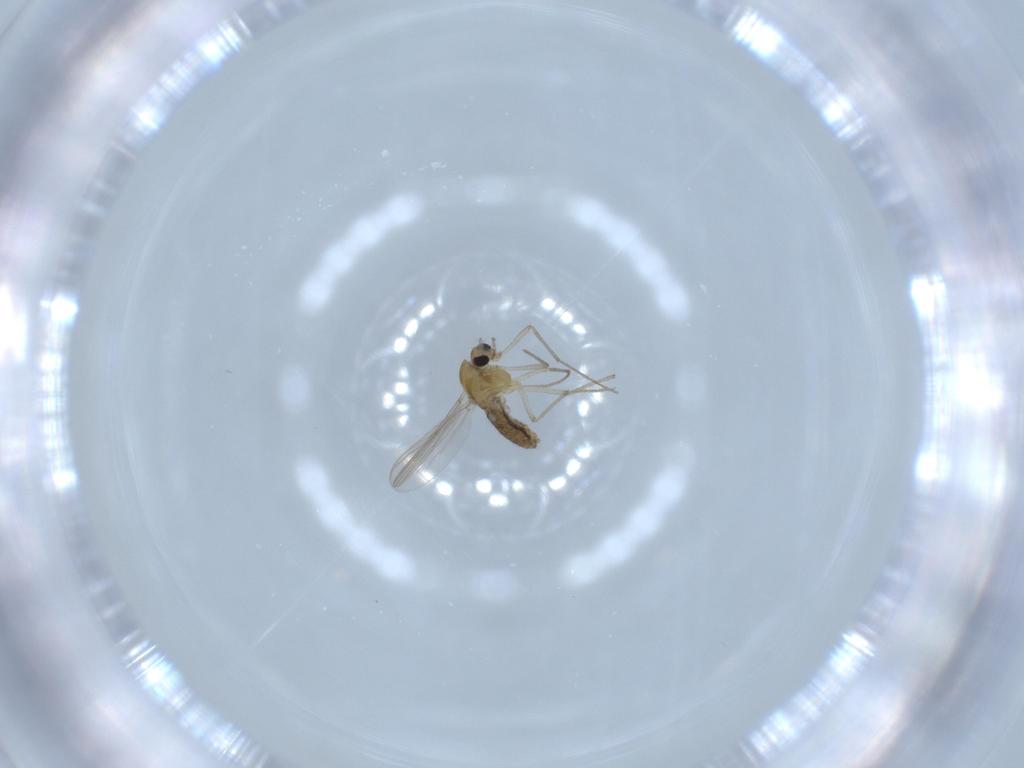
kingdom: Animalia
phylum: Arthropoda
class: Insecta
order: Diptera
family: Chironomidae
